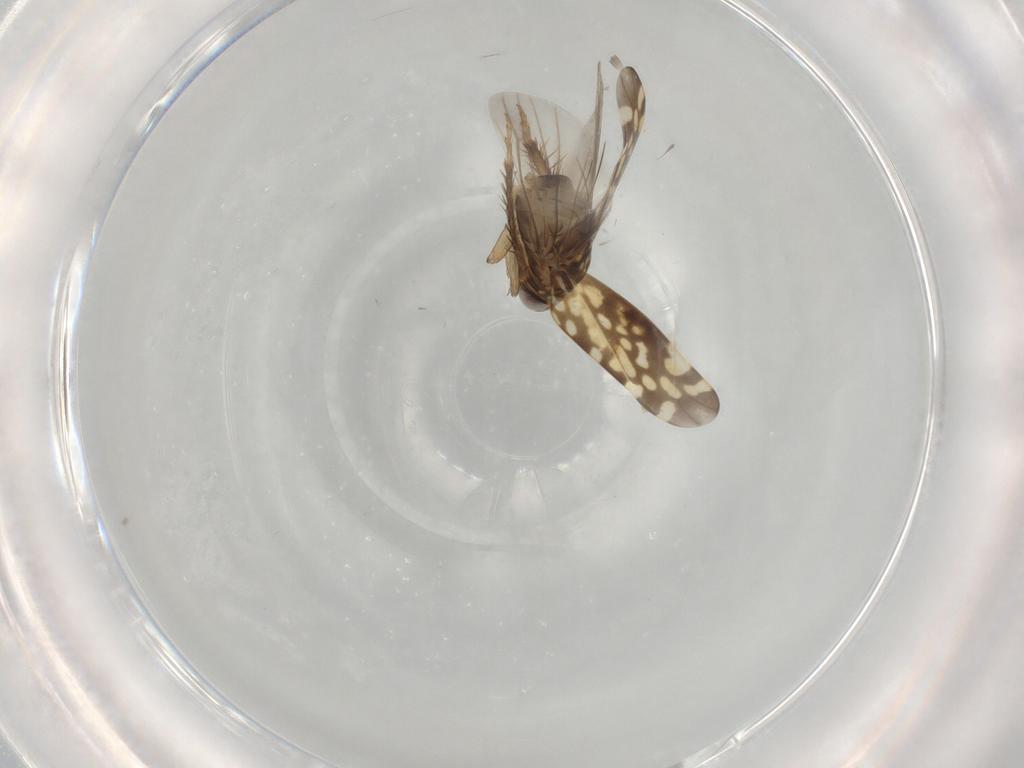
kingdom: Animalia
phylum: Arthropoda
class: Insecta
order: Hemiptera
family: Cicadellidae
